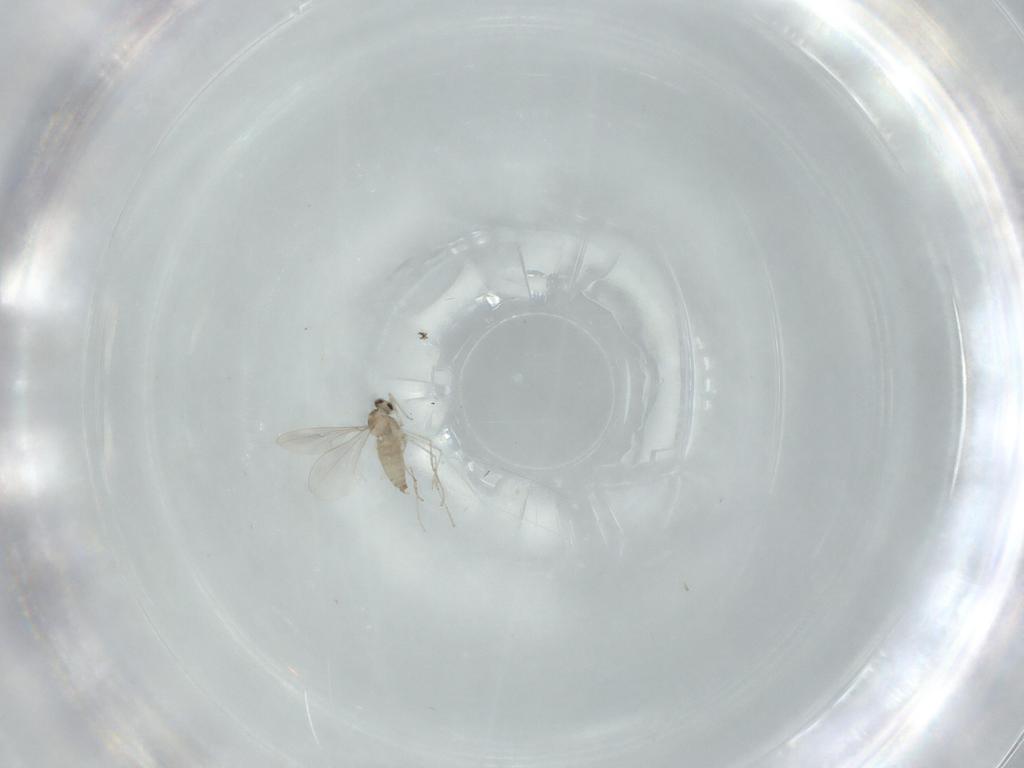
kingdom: Animalia
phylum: Arthropoda
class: Insecta
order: Diptera
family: Cecidomyiidae
